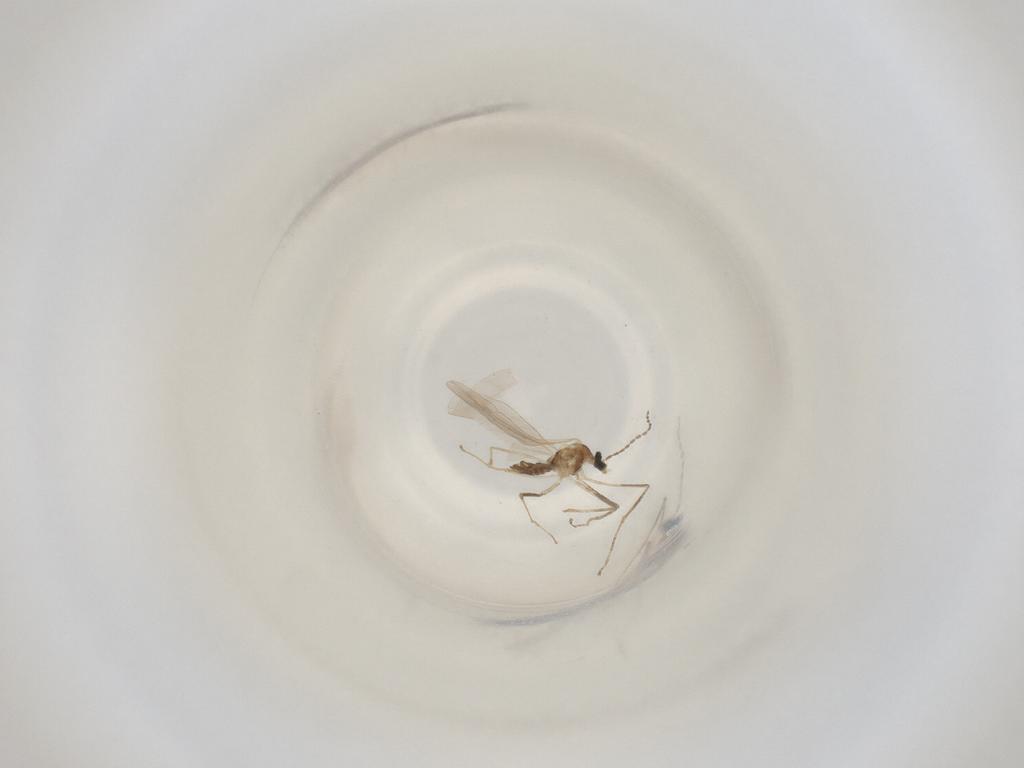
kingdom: Animalia
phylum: Arthropoda
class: Insecta
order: Diptera
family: Cecidomyiidae
